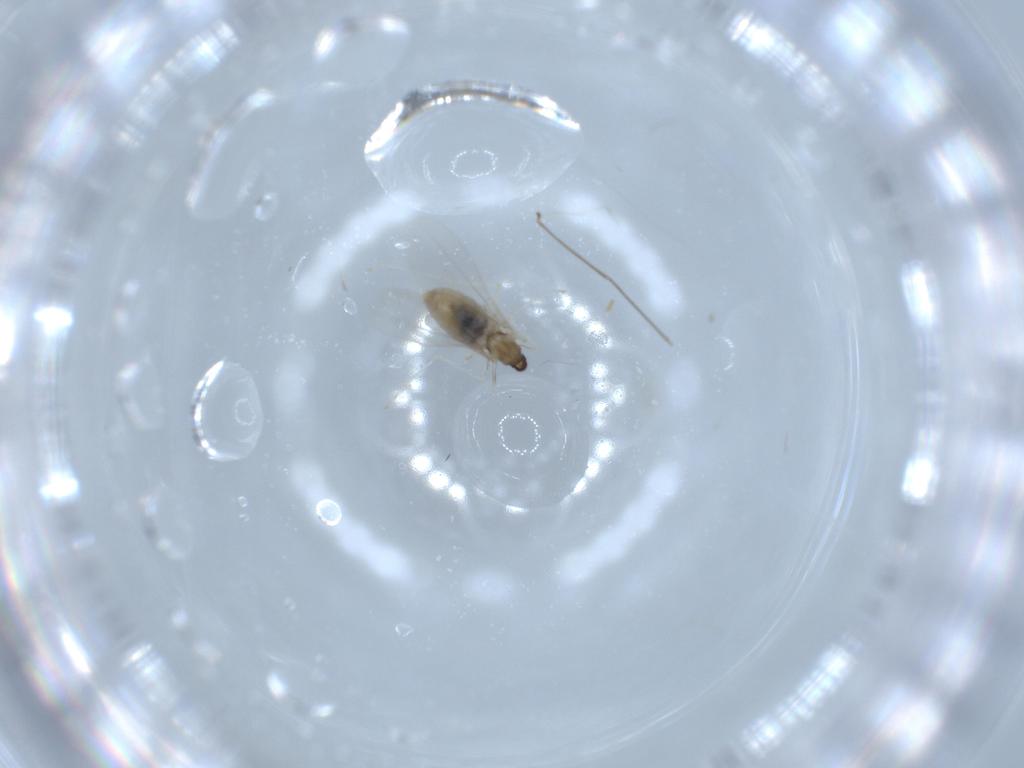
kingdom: Animalia
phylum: Arthropoda
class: Insecta
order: Diptera
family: Cecidomyiidae
